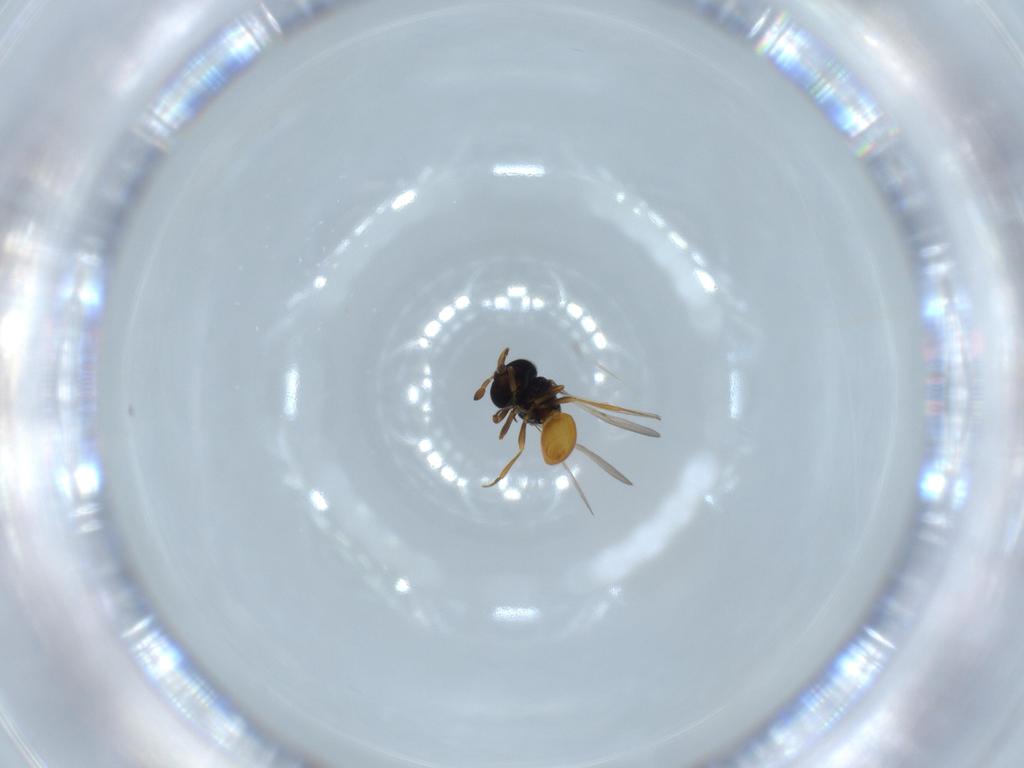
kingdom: Animalia
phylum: Arthropoda
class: Insecta
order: Hymenoptera
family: Scelionidae
